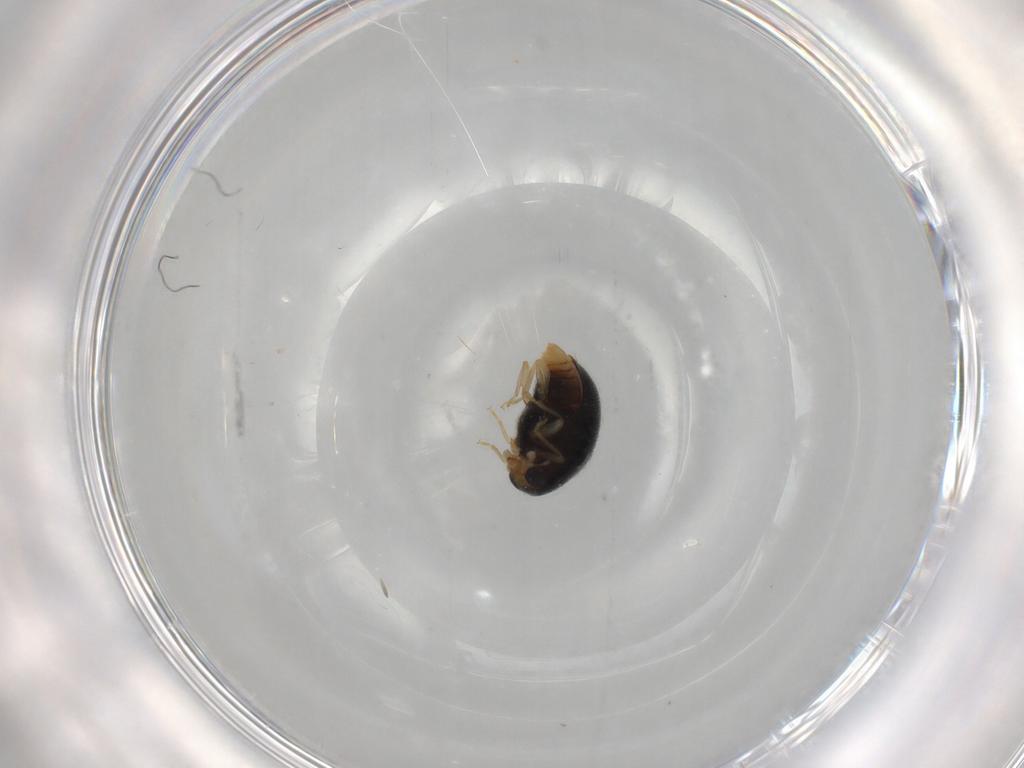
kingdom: Animalia
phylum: Arthropoda
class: Insecta
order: Coleoptera
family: Coccinellidae
